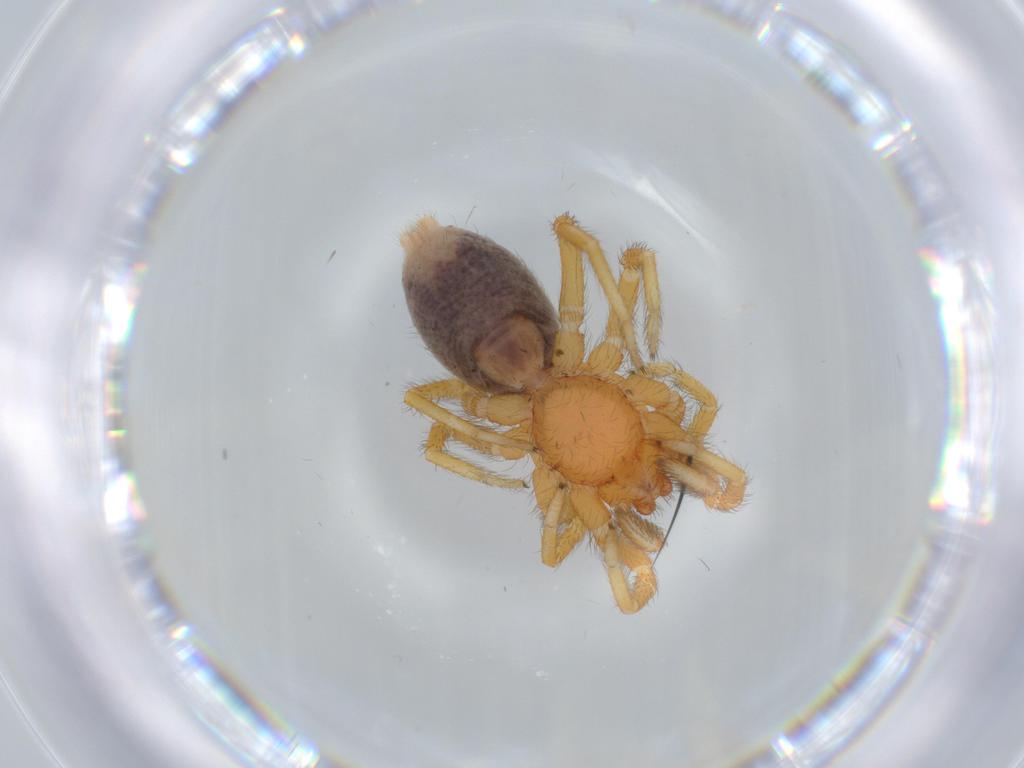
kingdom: Animalia
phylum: Arthropoda
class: Arachnida
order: Araneae
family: Caponiidae
